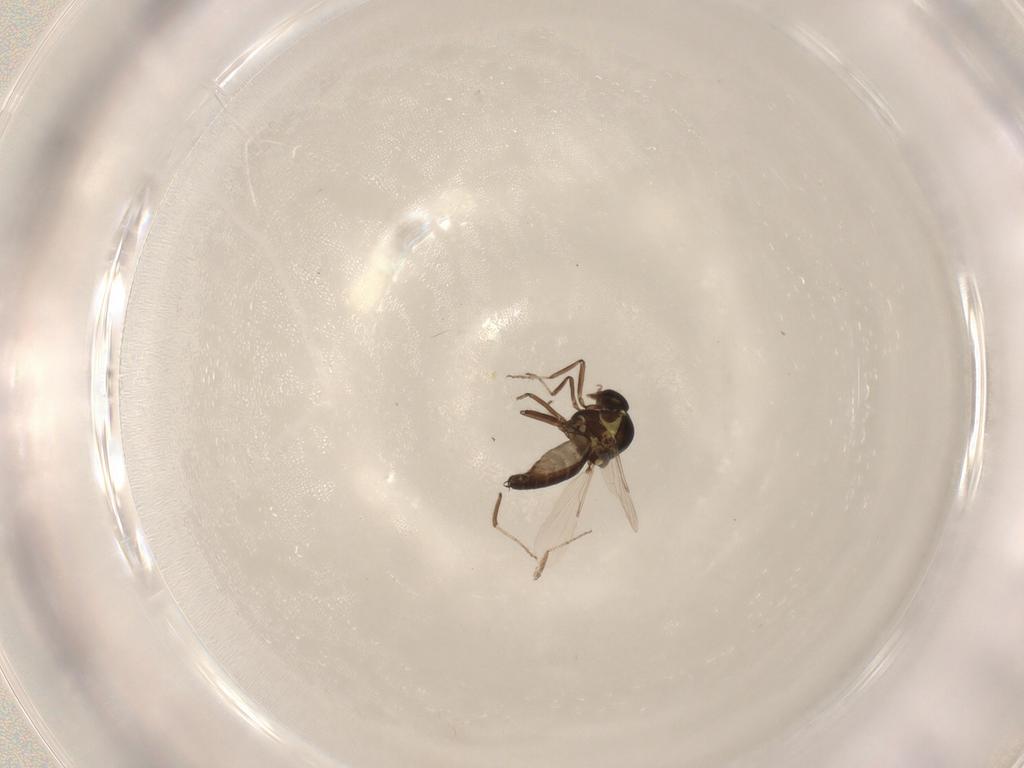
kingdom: Animalia
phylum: Arthropoda
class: Insecta
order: Diptera
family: Ceratopogonidae
